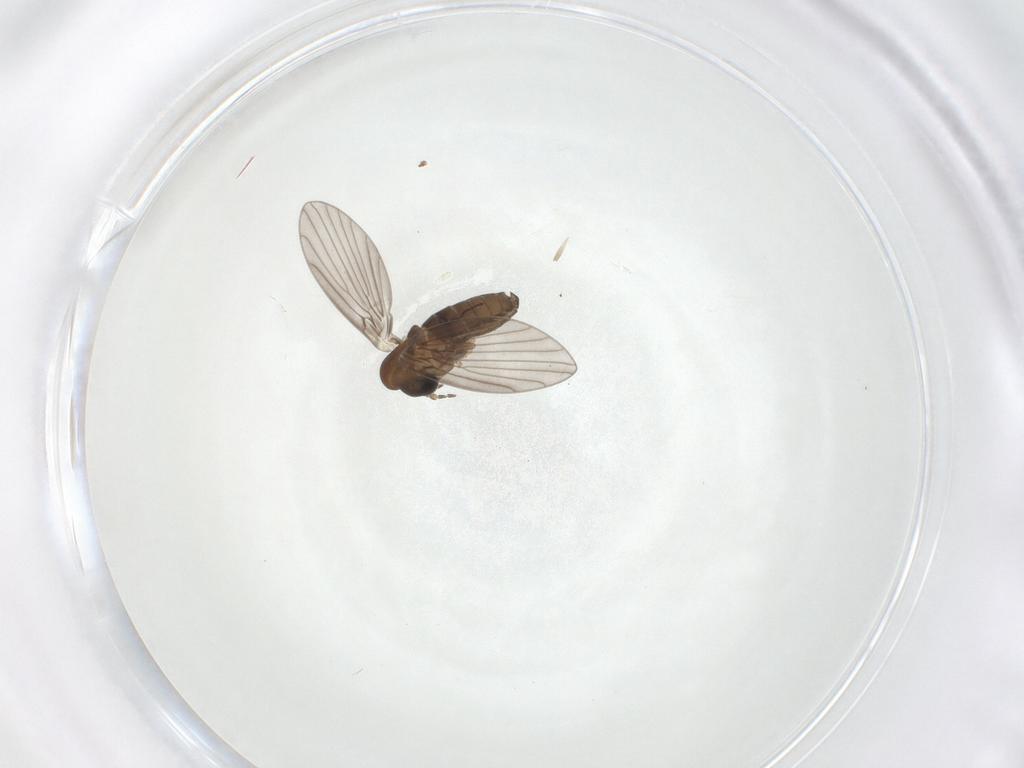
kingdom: Animalia
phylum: Arthropoda
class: Insecta
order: Diptera
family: Psychodidae
